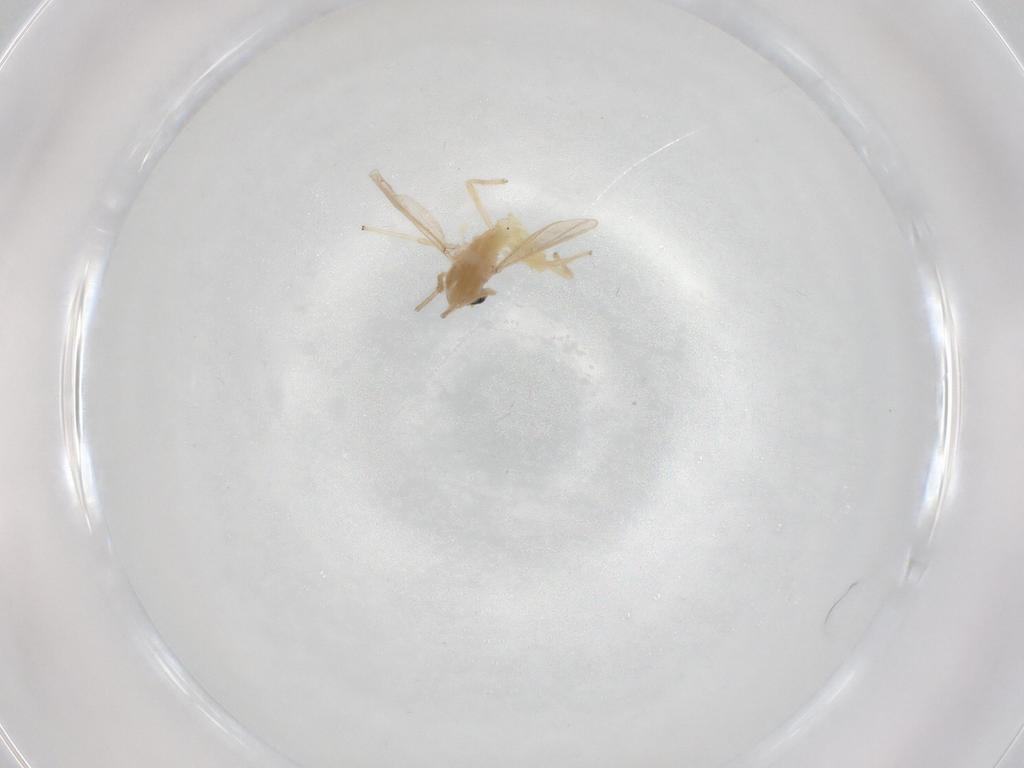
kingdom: Animalia
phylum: Arthropoda
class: Insecta
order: Diptera
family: Chironomidae
